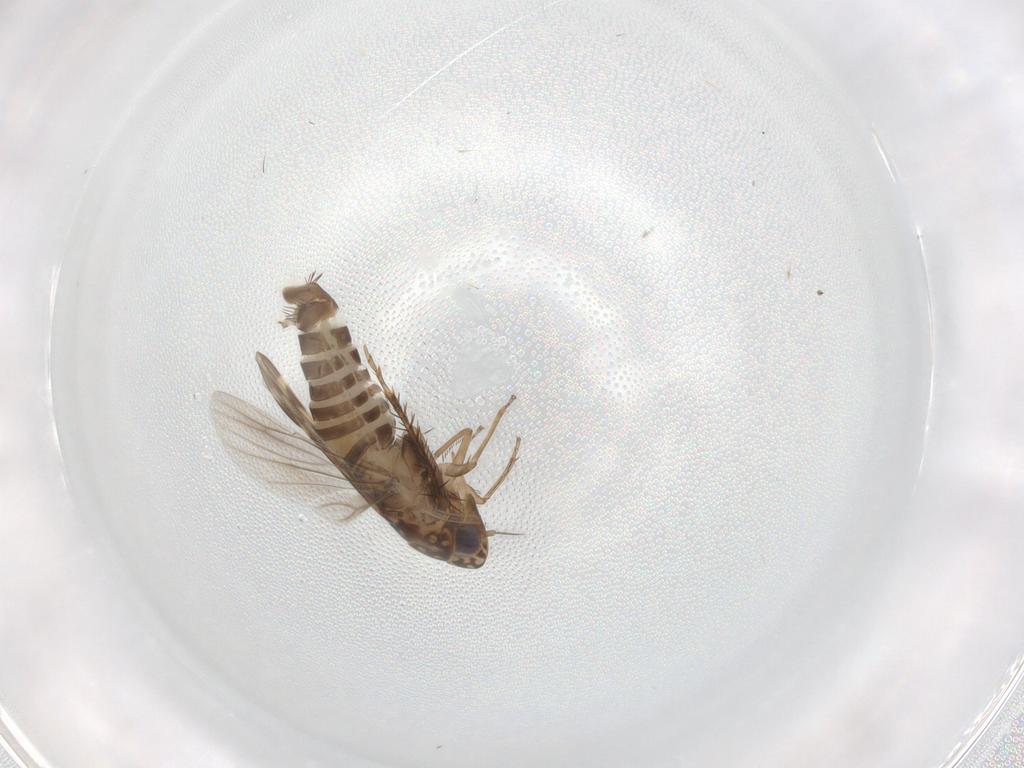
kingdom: Animalia
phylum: Arthropoda
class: Insecta
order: Hemiptera
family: Cicadellidae
